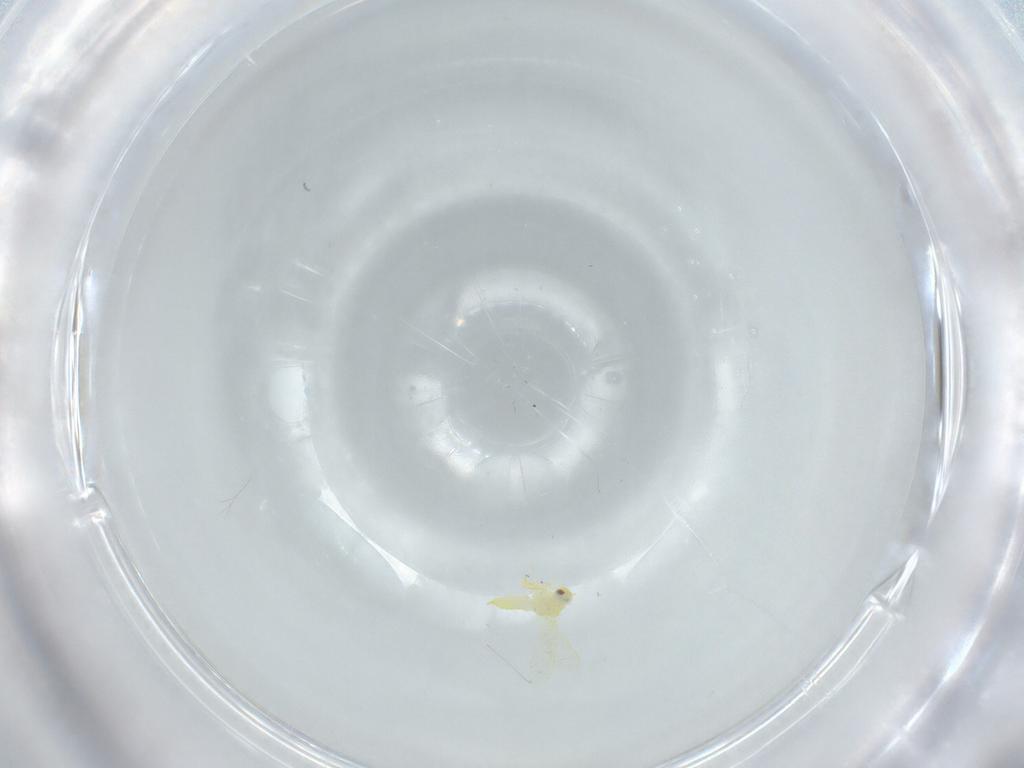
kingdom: Animalia
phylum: Arthropoda
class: Insecta
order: Hemiptera
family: Aleyrodidae
